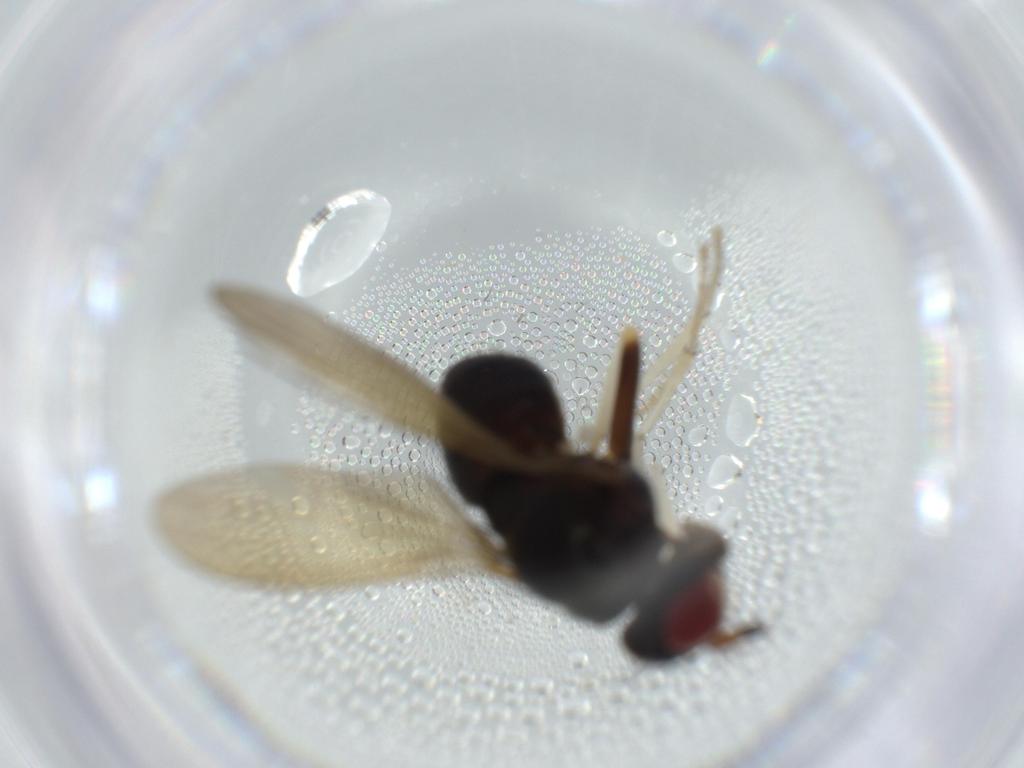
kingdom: Animalia
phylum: Arthropoda
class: Insecta
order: Diptera
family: Lauxaniidae
